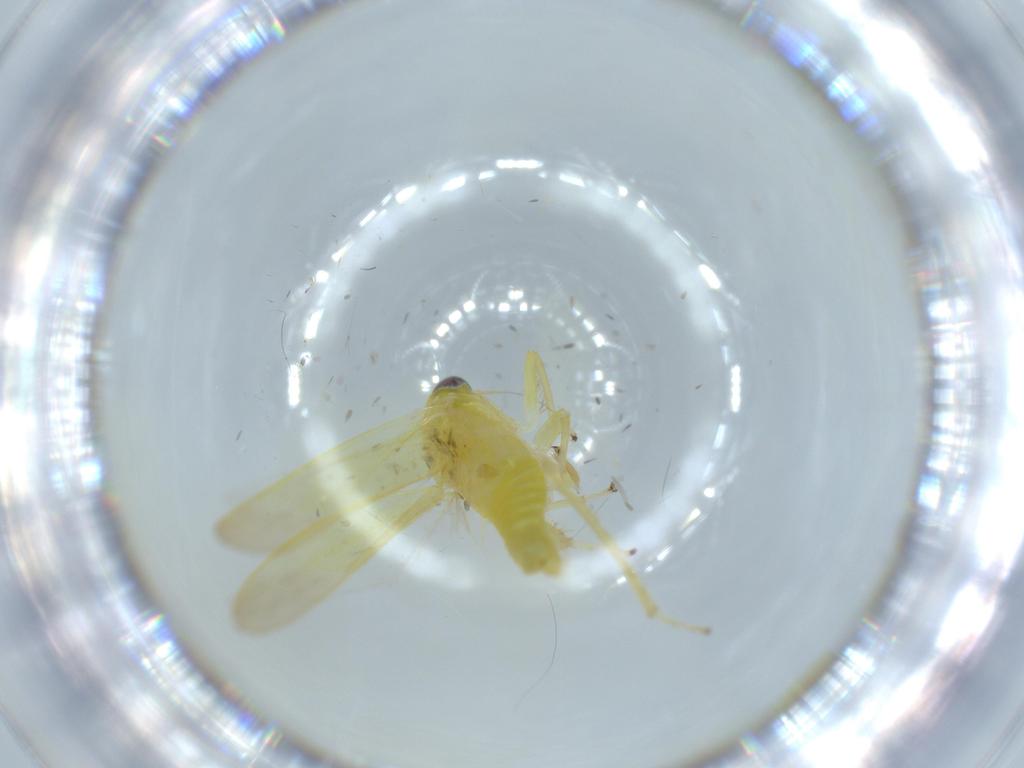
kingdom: Animalia
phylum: Arthropoda
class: Insecta
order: Hemiptera
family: Cicadellidae
